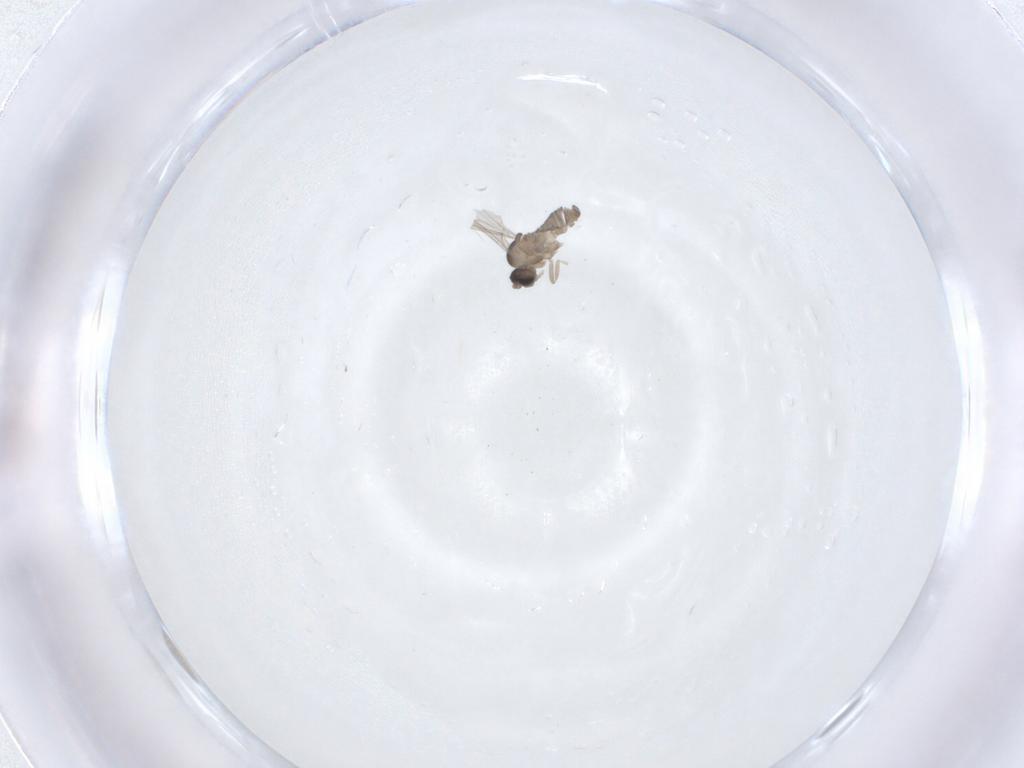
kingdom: Animalia
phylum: Arthropoda
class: Insecta
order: Diptera
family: Cecidomyiidae
